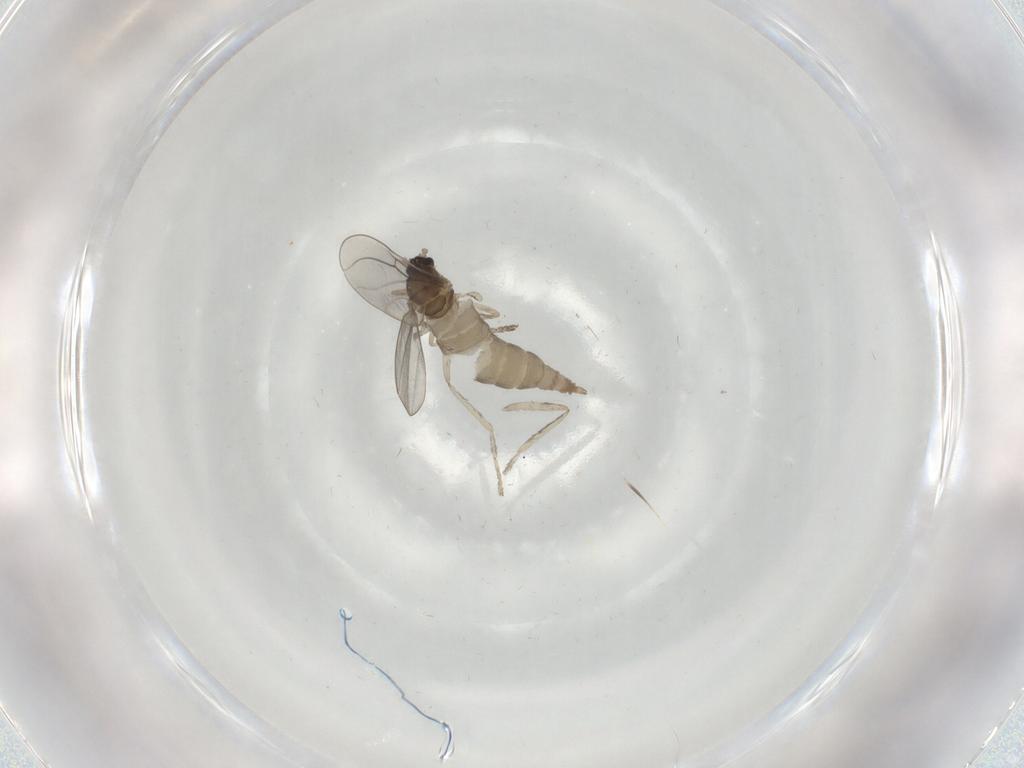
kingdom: Animalia
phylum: Arthropoda
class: Insecta
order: Diptera
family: Cecidomyiidae
